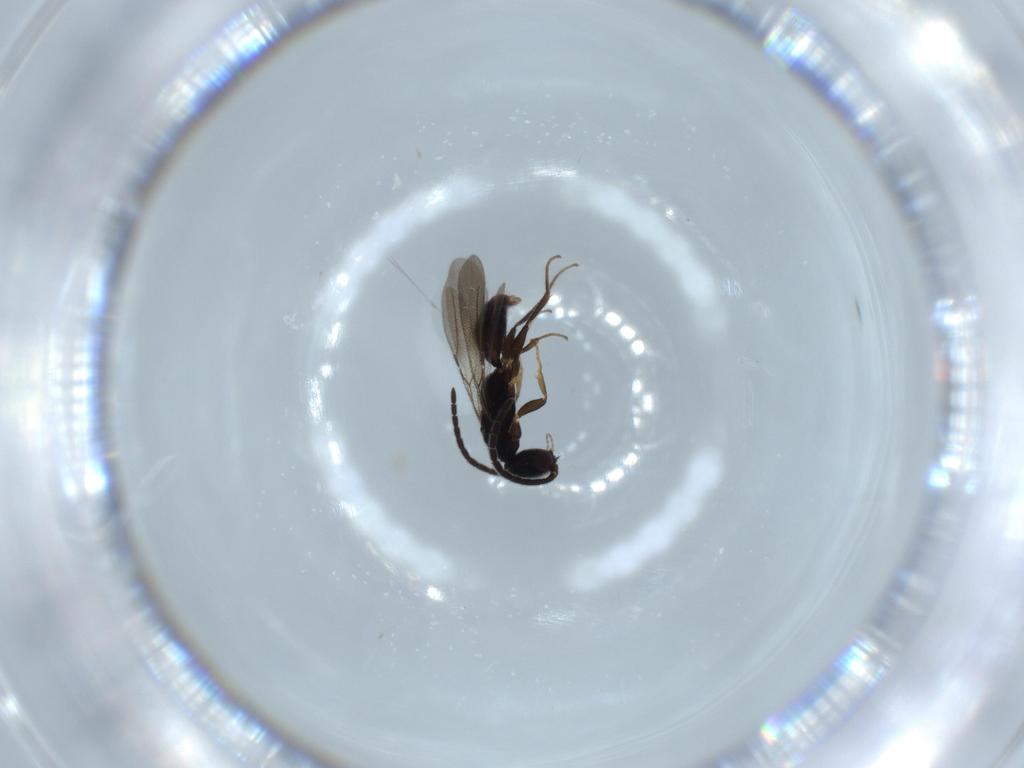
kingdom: Animalia
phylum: Arthropoda
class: Insecta
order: Hymenoptera
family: Bethylidae
